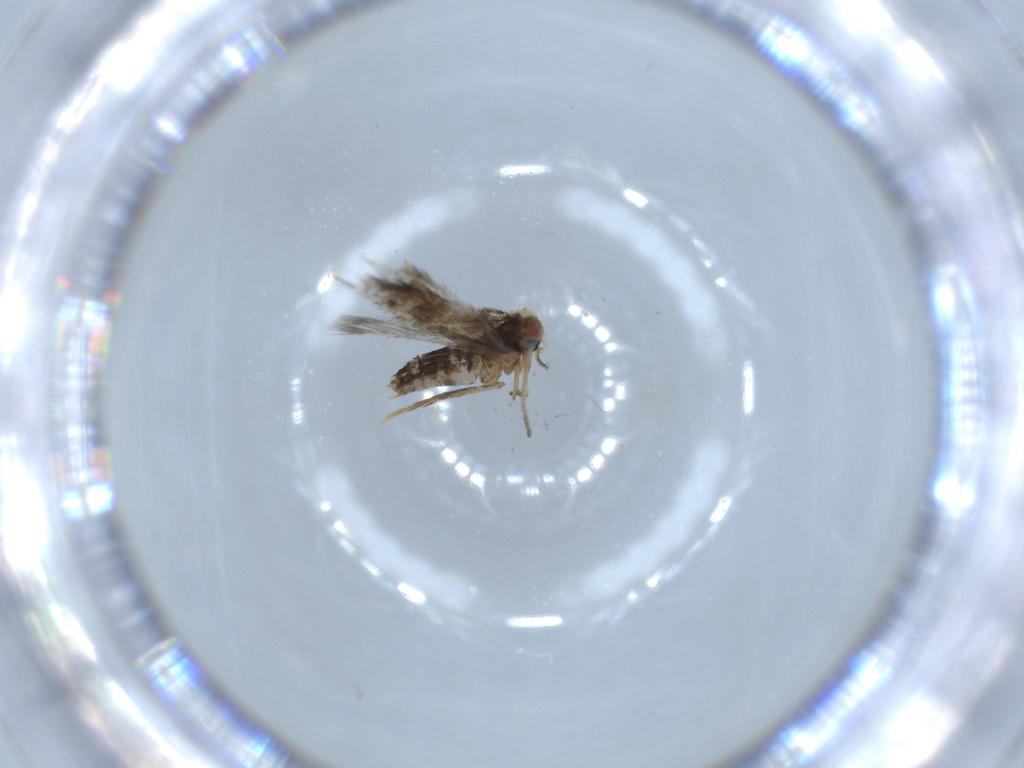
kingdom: Animalia
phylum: Arthropoda
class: Insecta
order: Lepidoptera
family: Nepticulidae
